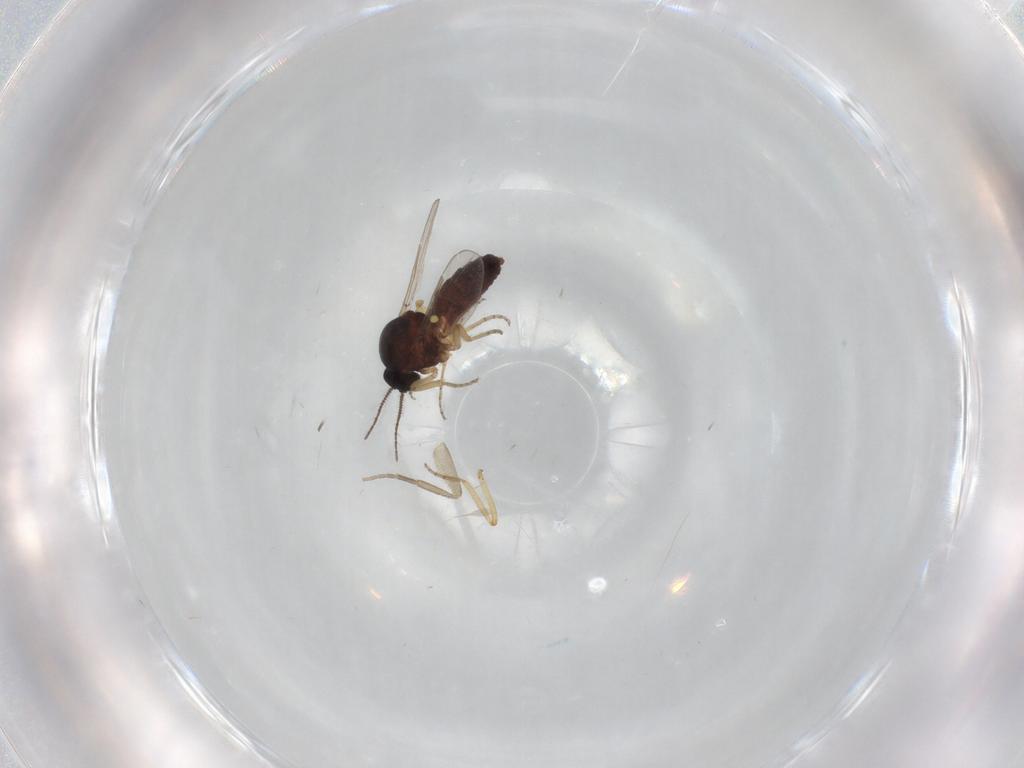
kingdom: Animalia
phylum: Arthropoda
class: Insecta
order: Diptera
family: Ceratopogonidae
